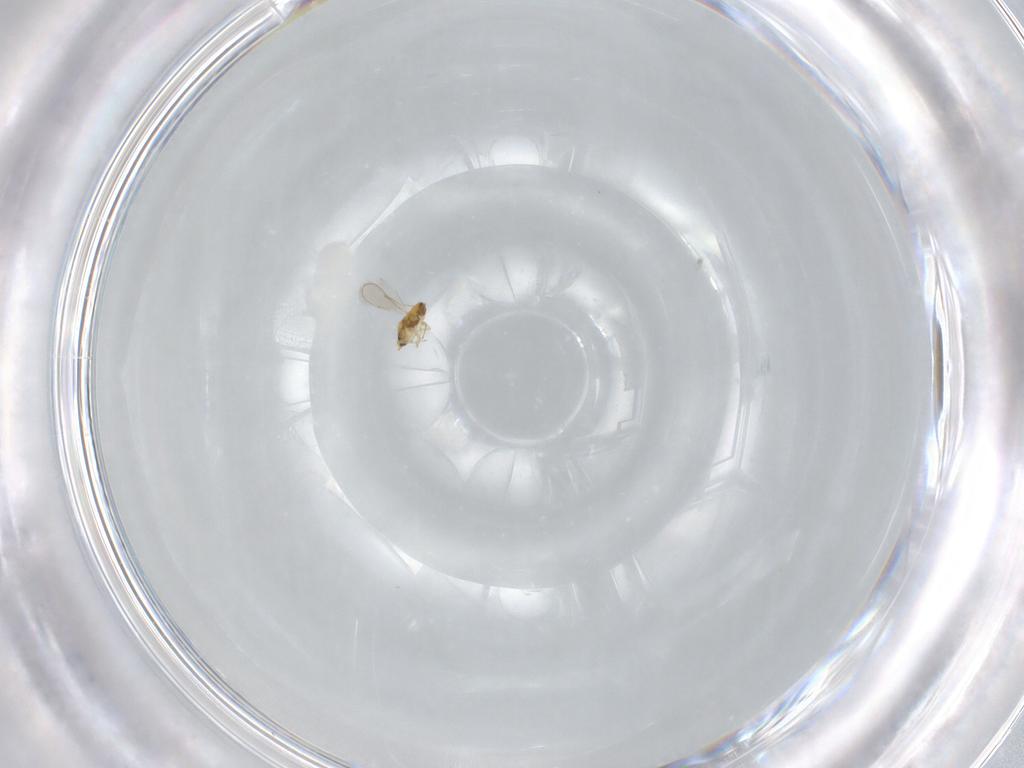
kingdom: Animalia
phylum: Arthropoda
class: Insecta
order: Hymenoptera
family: Aphelinidae
